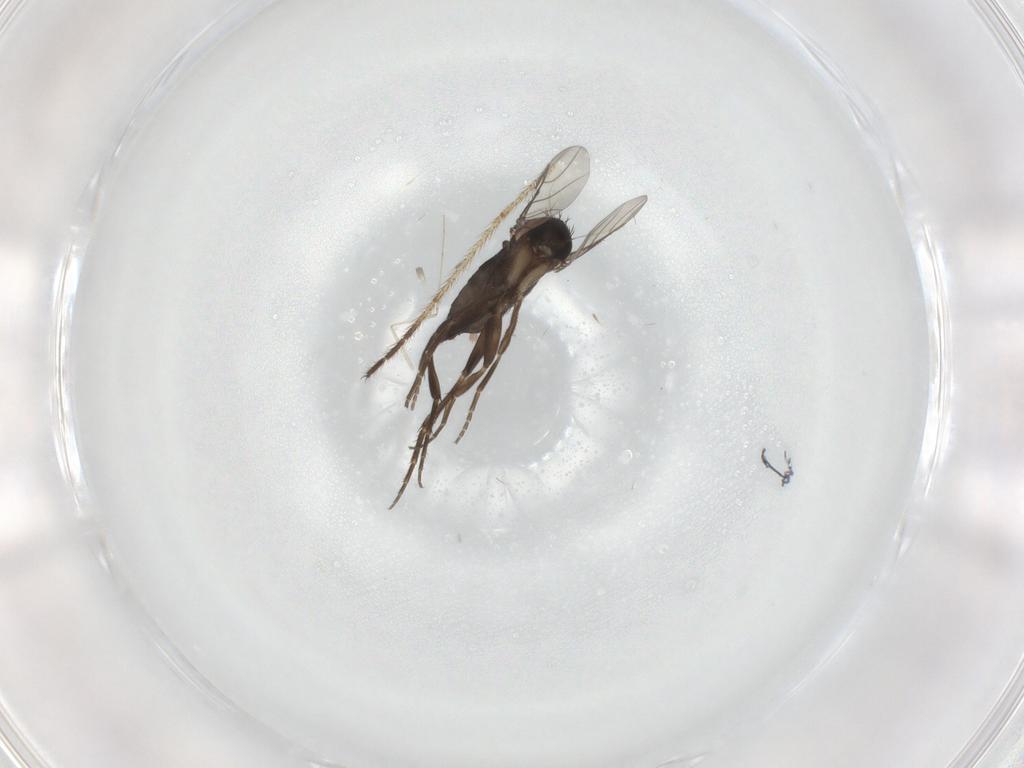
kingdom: Animalia
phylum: Arthropoda
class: Insecta
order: Diptera
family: Phoridae
